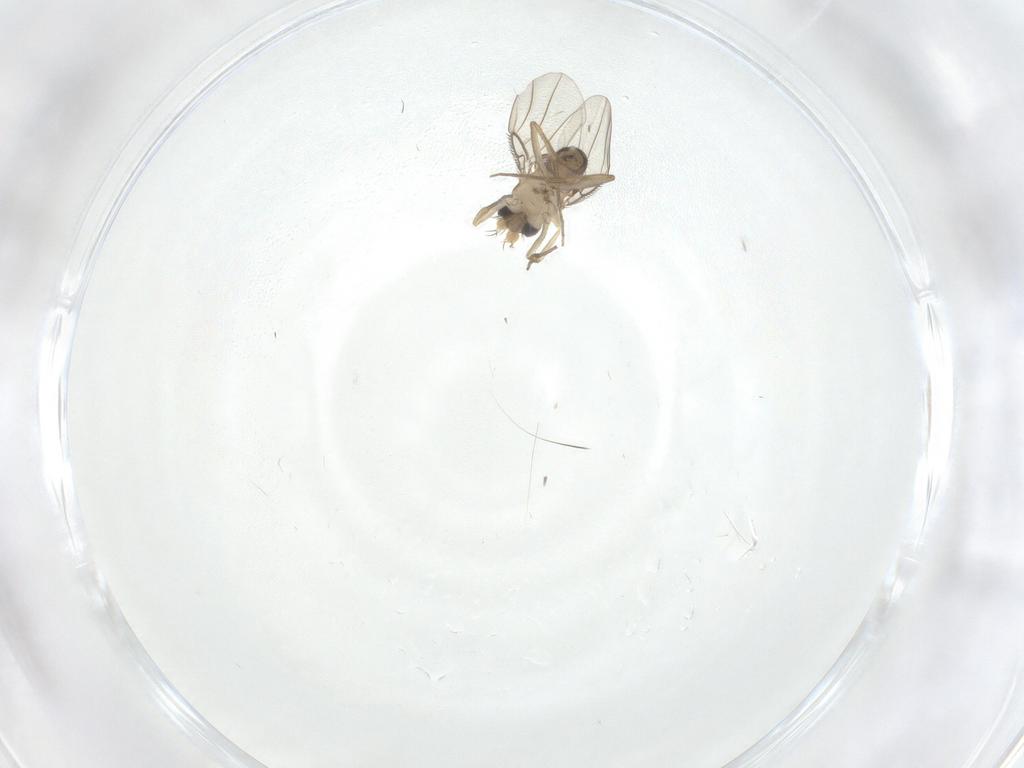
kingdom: Animalia
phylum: Arthropoda
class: Insecta
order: Diptera
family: Phoridae
